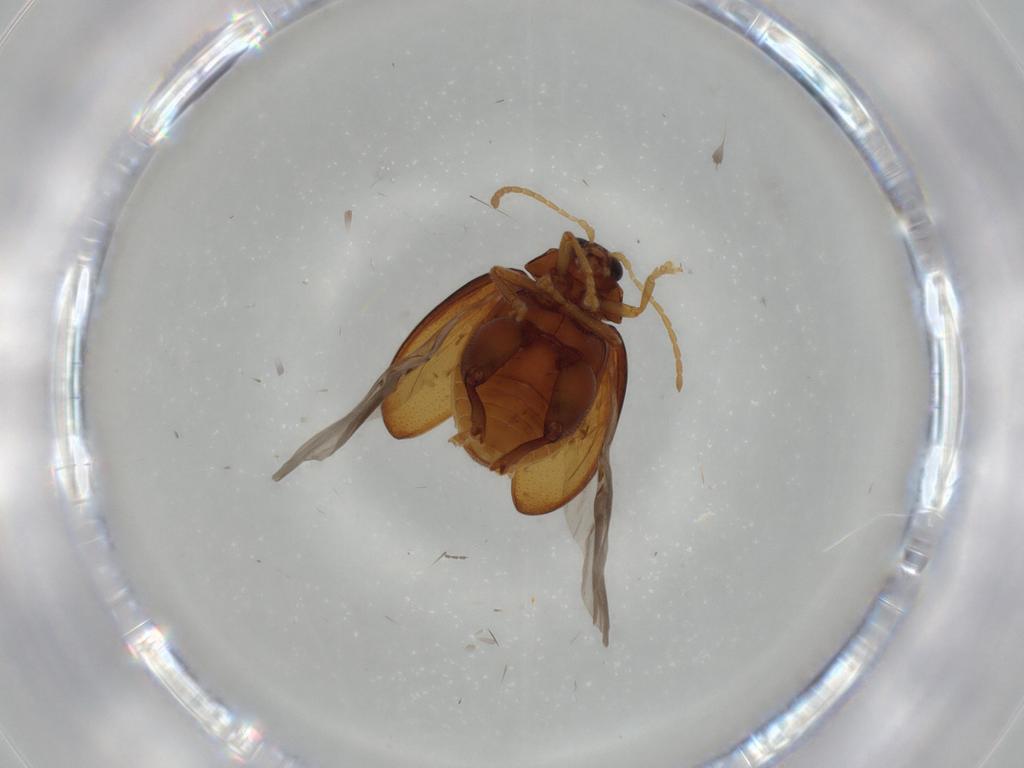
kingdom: Animalia
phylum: Arthropoda
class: Insecta
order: Coleoptera
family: Chrysomelidae
